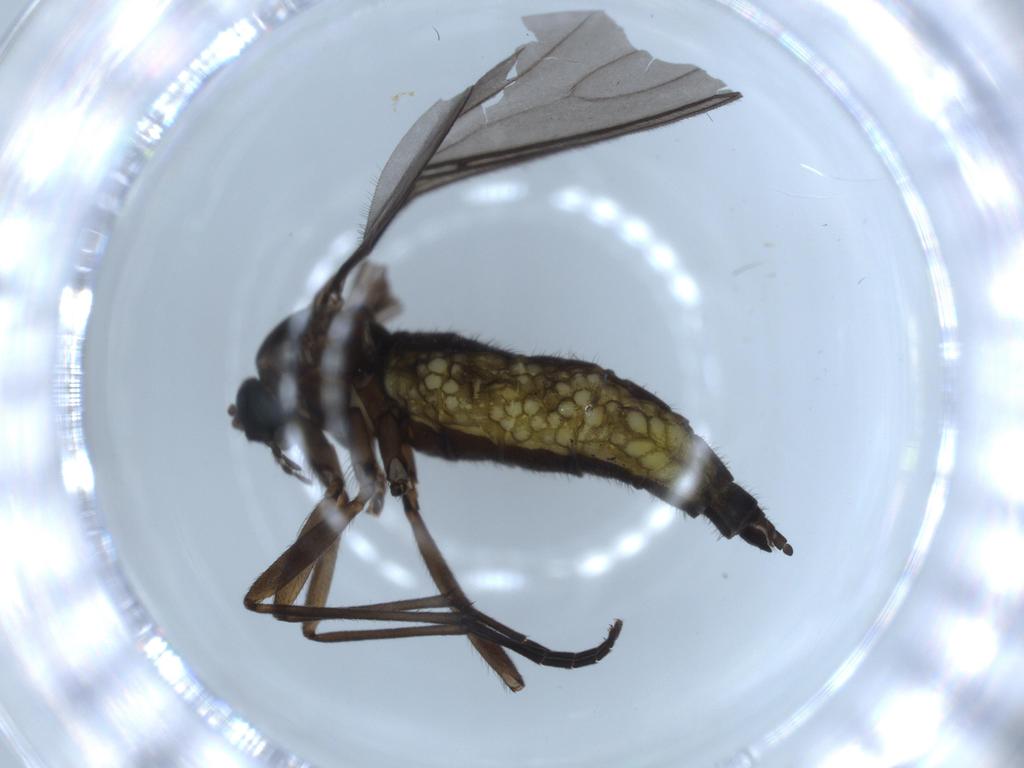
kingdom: Animalia
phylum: Arthropoda
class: Insecta
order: Diptera
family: Sciaridae
